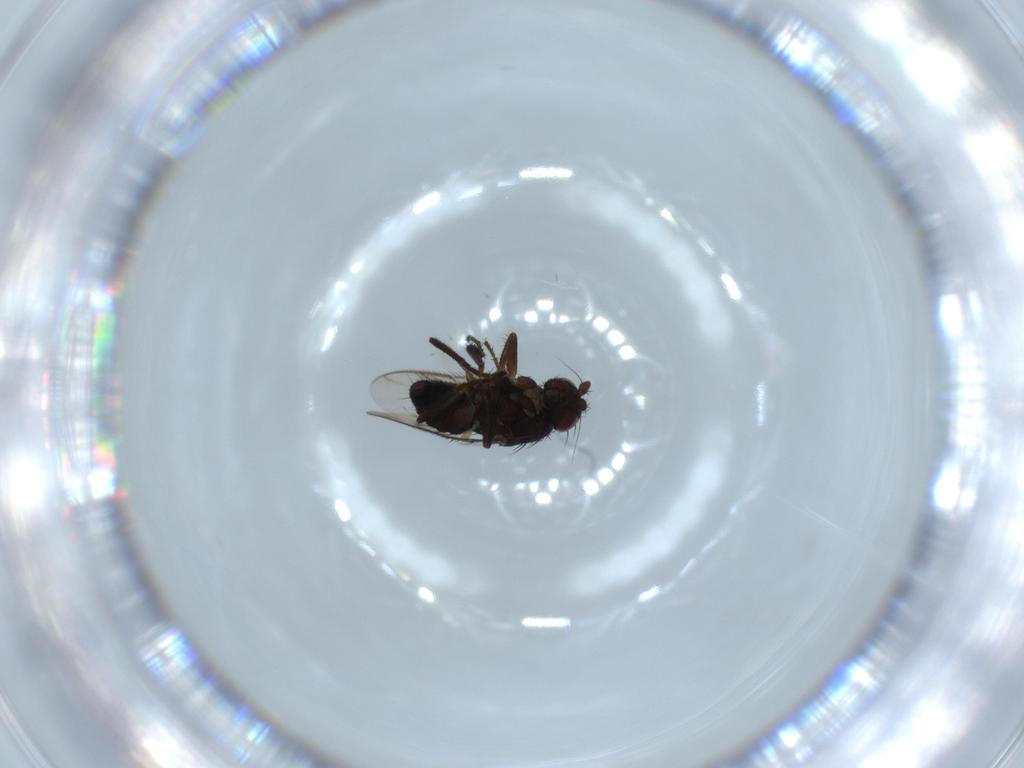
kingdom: Animalia
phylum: Arthropoda
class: Insecta
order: Diptera
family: Sphaeroceridae
